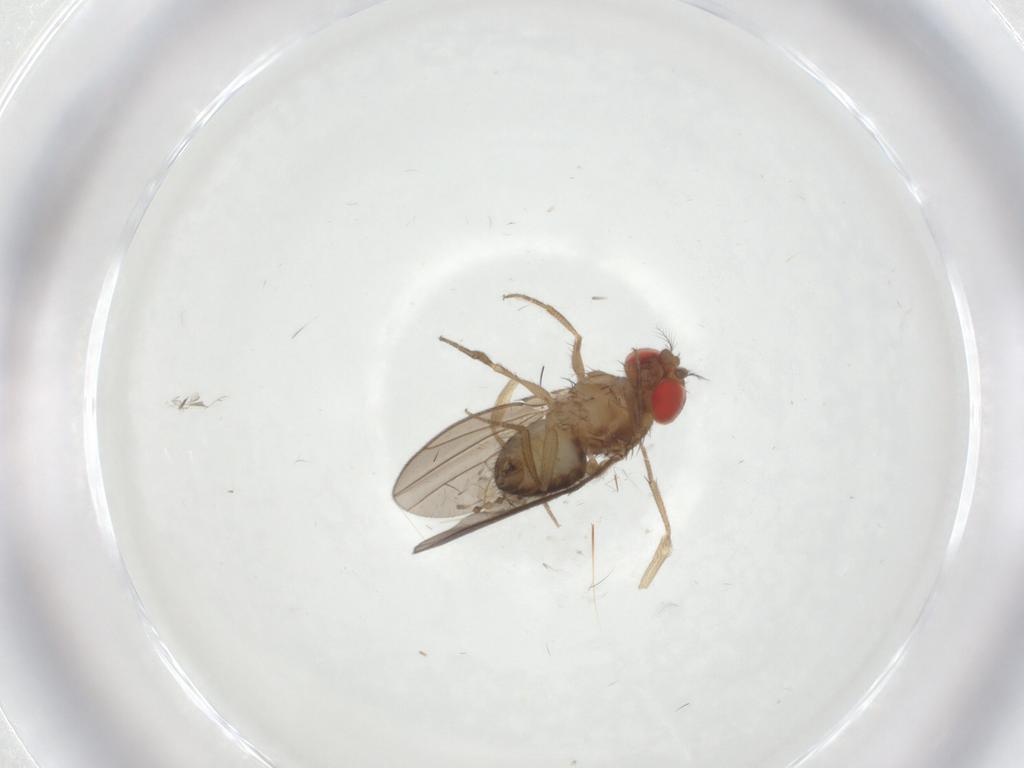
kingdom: Animalia
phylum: Arthropoda
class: Insecta
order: Diptera
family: Drosophilidae
